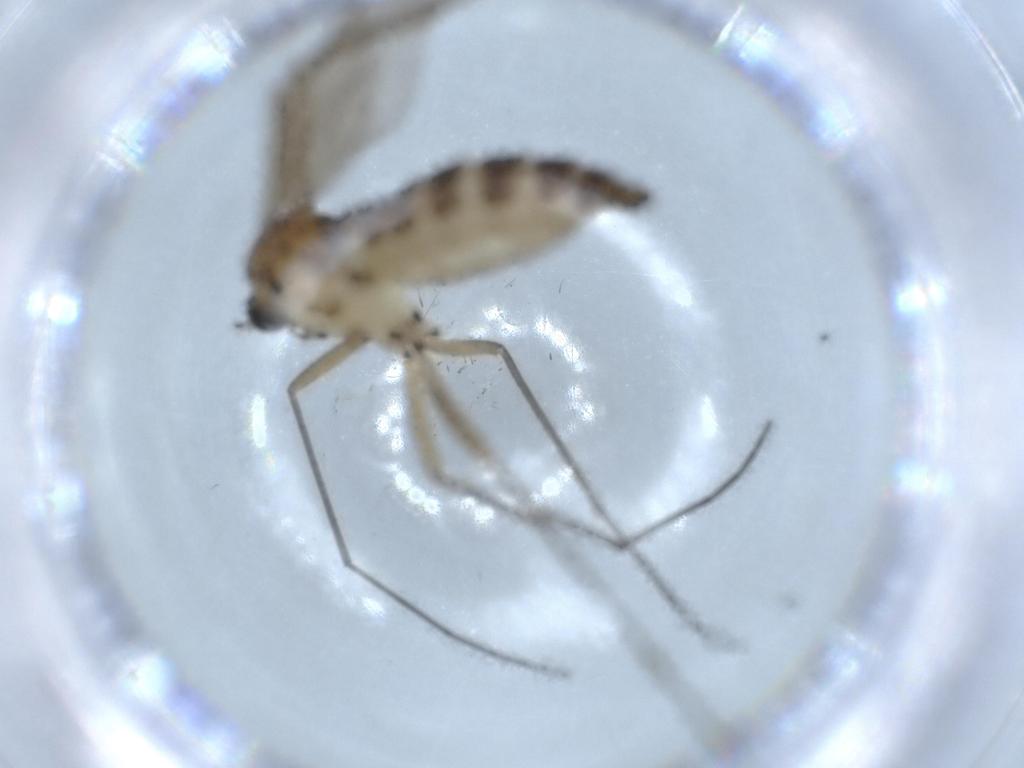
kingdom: Animalia
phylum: Arthropoda
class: Insecta
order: Diptera
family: Sciaridae
